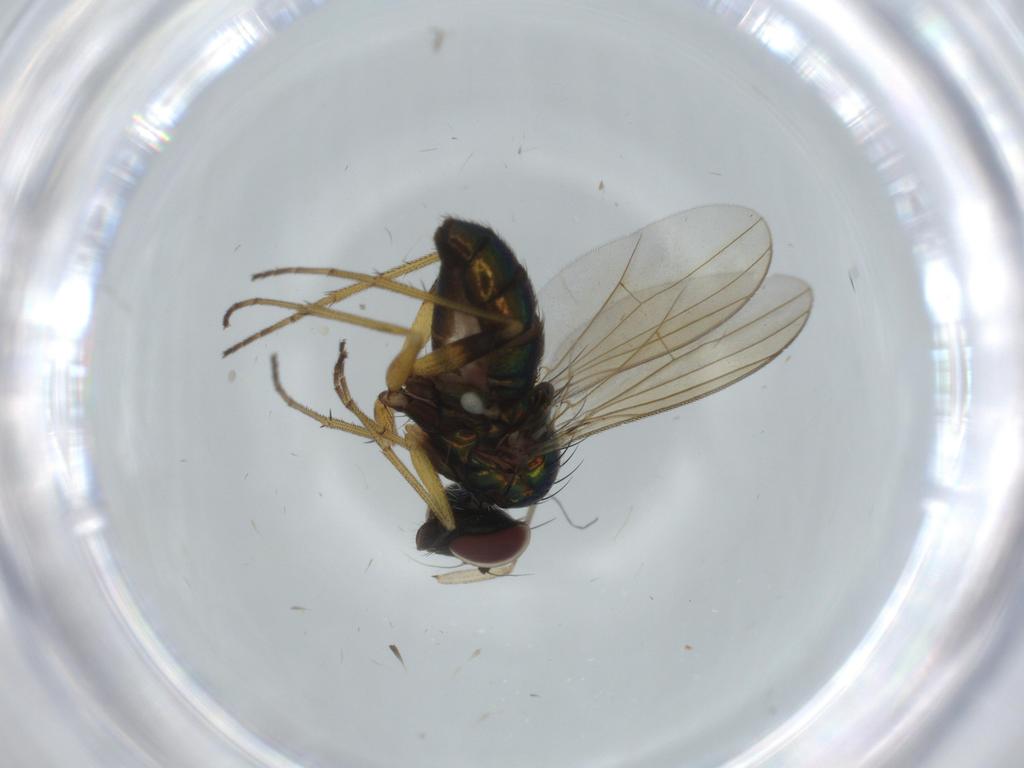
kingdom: Animalia
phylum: Arthropoda
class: Insecta
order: Diptera
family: Dolichopodidae
